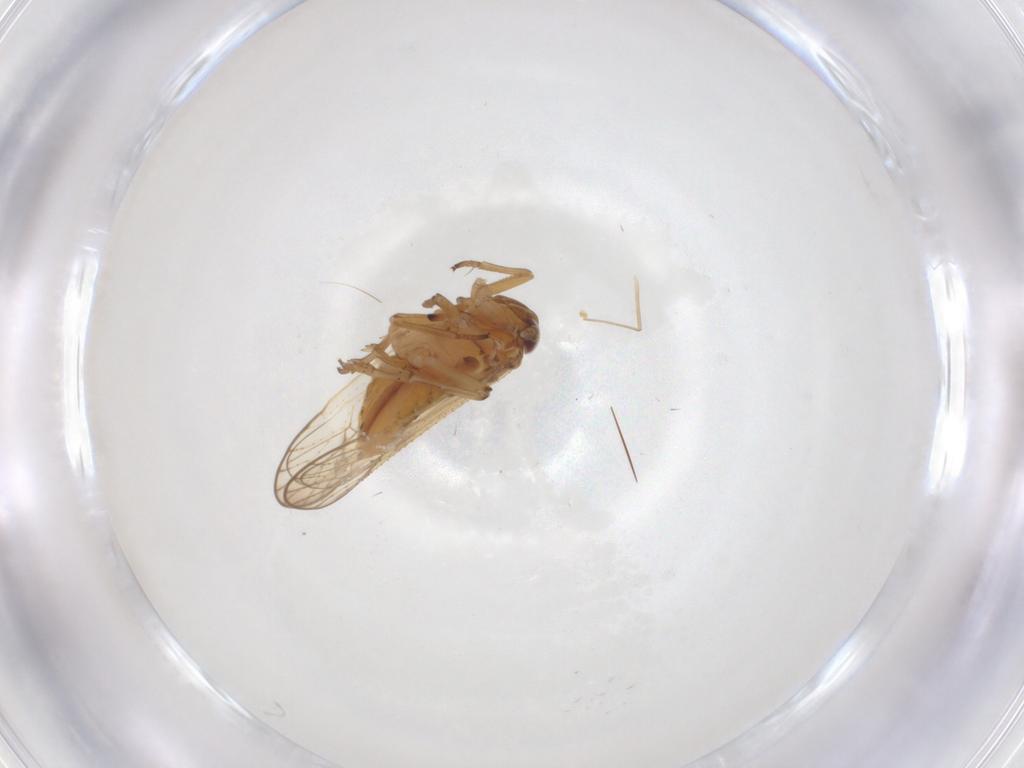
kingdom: Animalia
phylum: Arthropoda
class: Insecta
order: Hemiptera
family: Delphacidae
